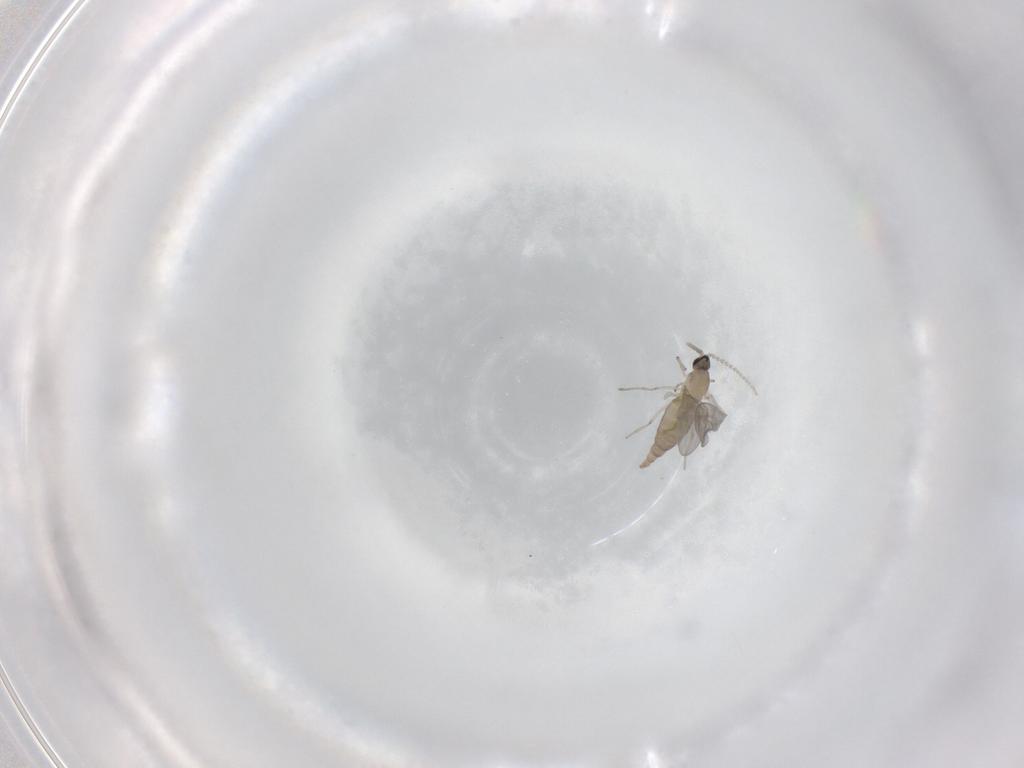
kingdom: Animalia
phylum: Arthropoda
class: Insecta
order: Diptera
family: Cecidomyiidae
